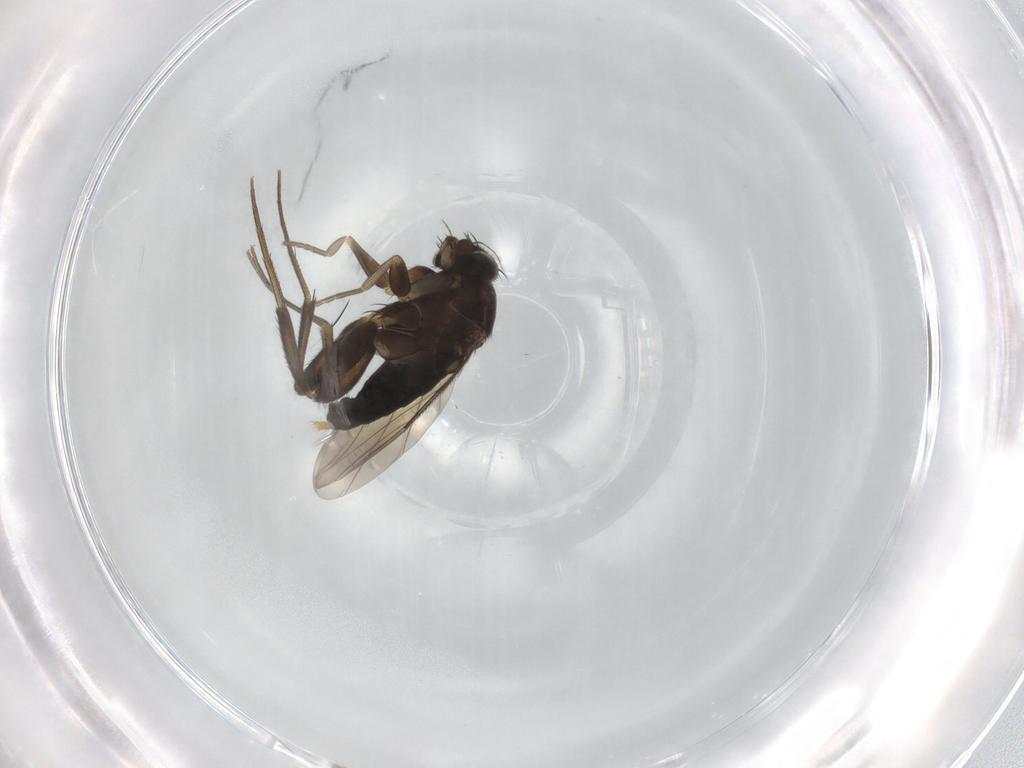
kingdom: Animalia
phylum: Arthropoda
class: Insecta
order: Diptera
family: Phoridae
